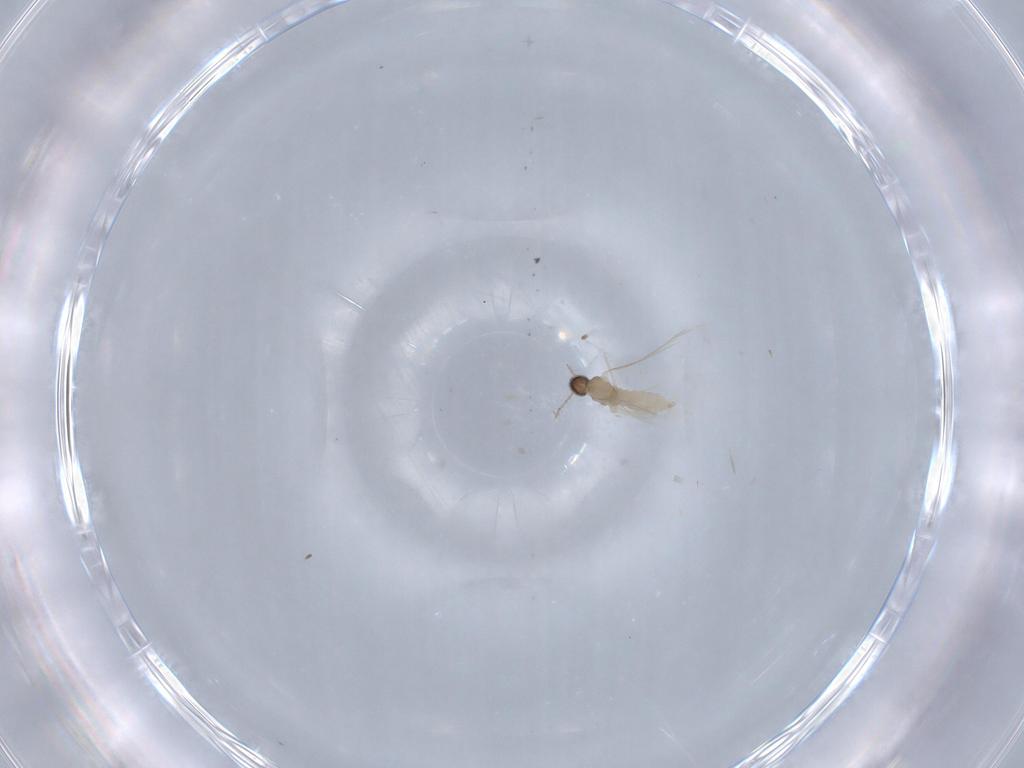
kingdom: Animalia
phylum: Arthropoda
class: Insecta
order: Diptera
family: Cecidomyiidae
